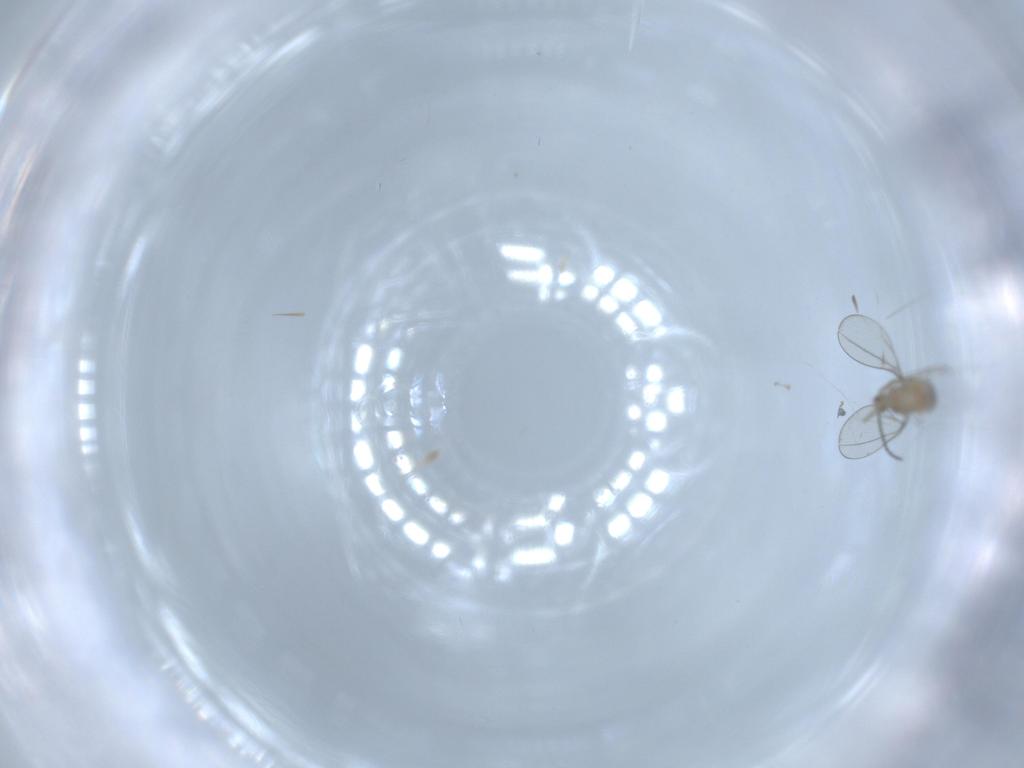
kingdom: Animalia
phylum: Arthropoda
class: Insecta
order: Diptera
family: Cecidomyiidae
